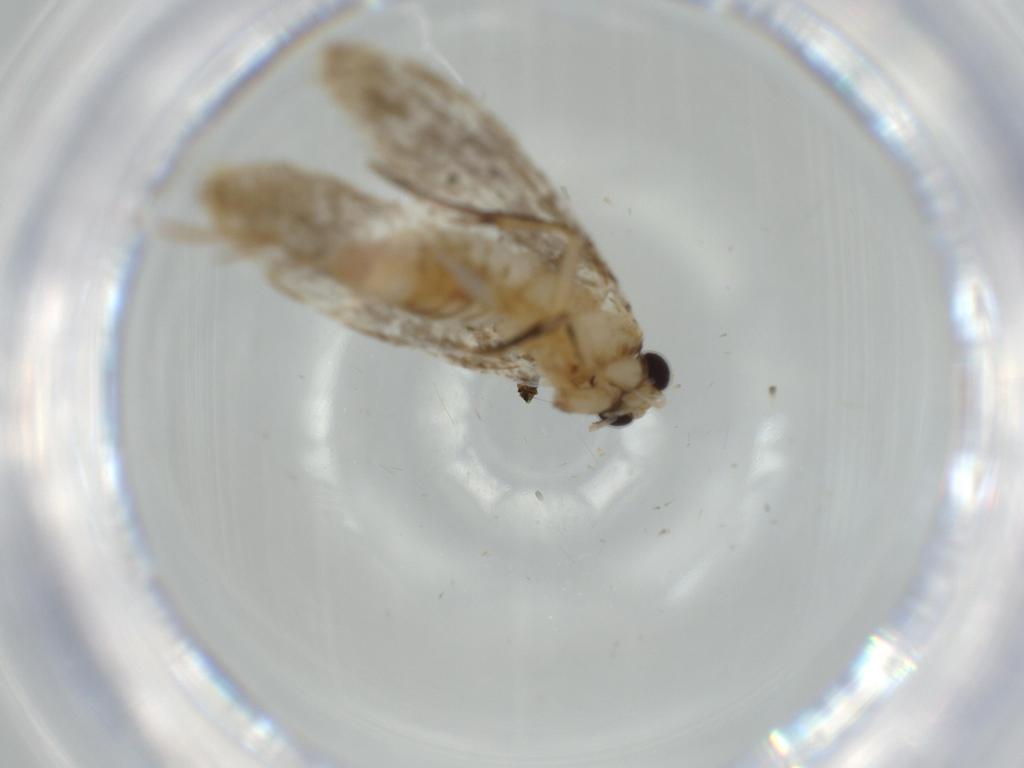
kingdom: Animalia
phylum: Arthropoda
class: Insecta
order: Lepidoptera
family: Tineidae
